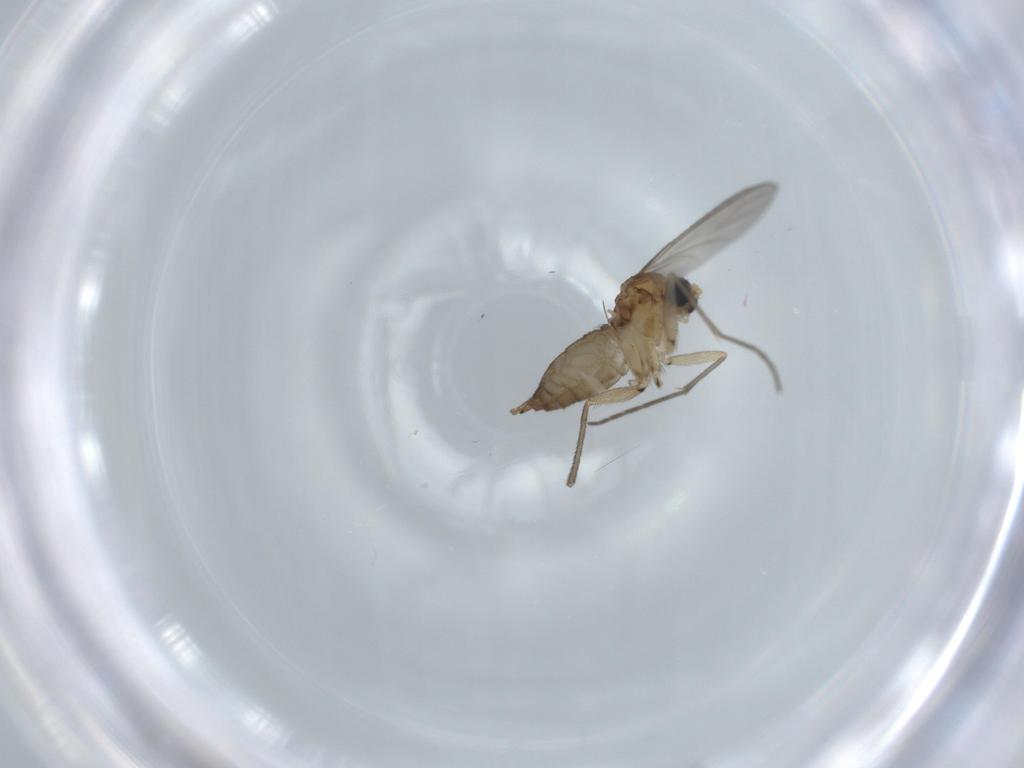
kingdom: Animalia
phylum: Arthropoda
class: Insecta
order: Diptera
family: Sciaridae
